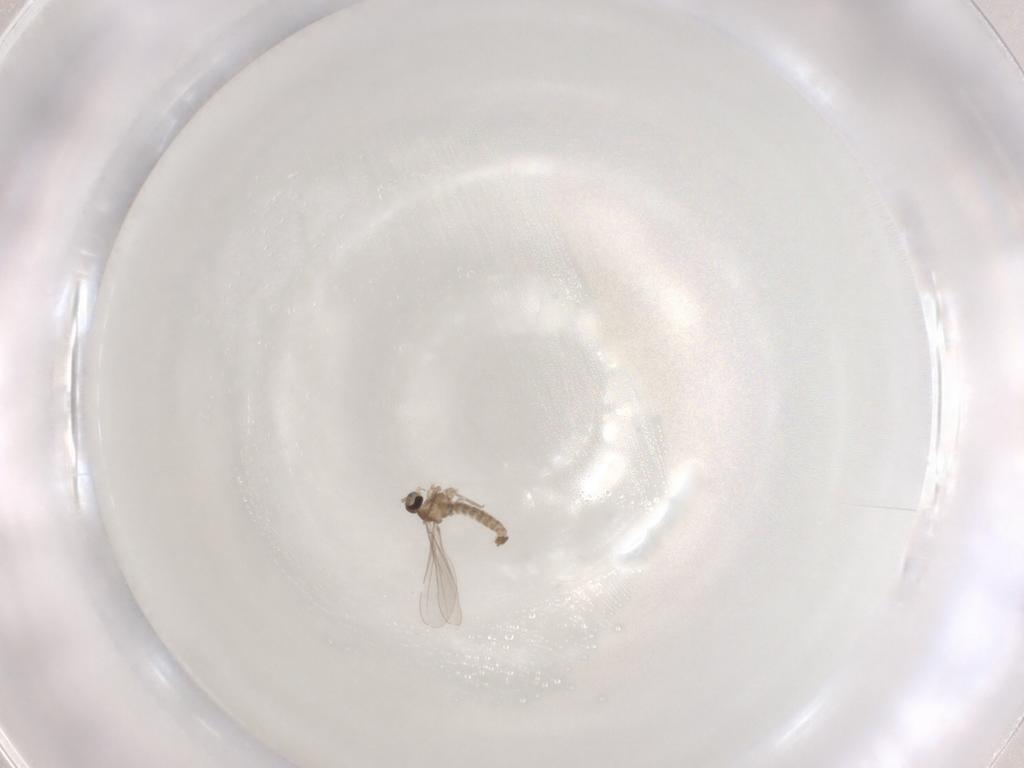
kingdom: Animalia
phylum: Arthropoda
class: Insecta
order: Diptera
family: Cecidomyiidae
